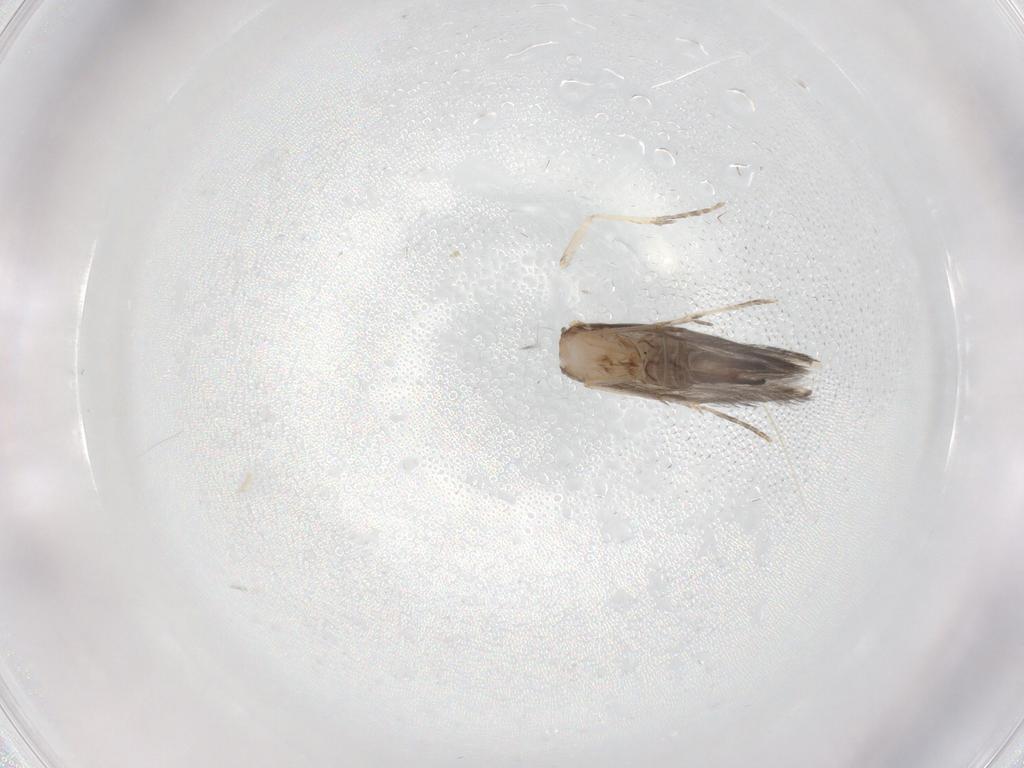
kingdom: Animalia
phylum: Arthropoda
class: Insecta
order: Trichoptera
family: Hydroptilidae
